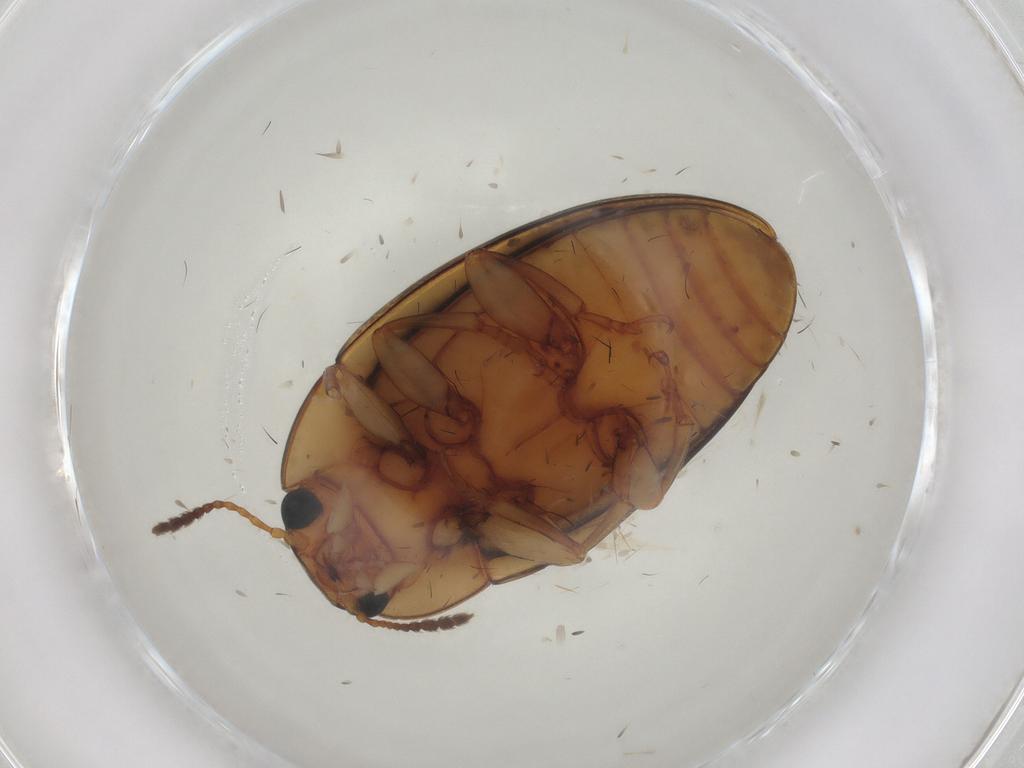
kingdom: Animalia
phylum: Arthropoda
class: Insecta
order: Coleoptera
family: Erotylidae
